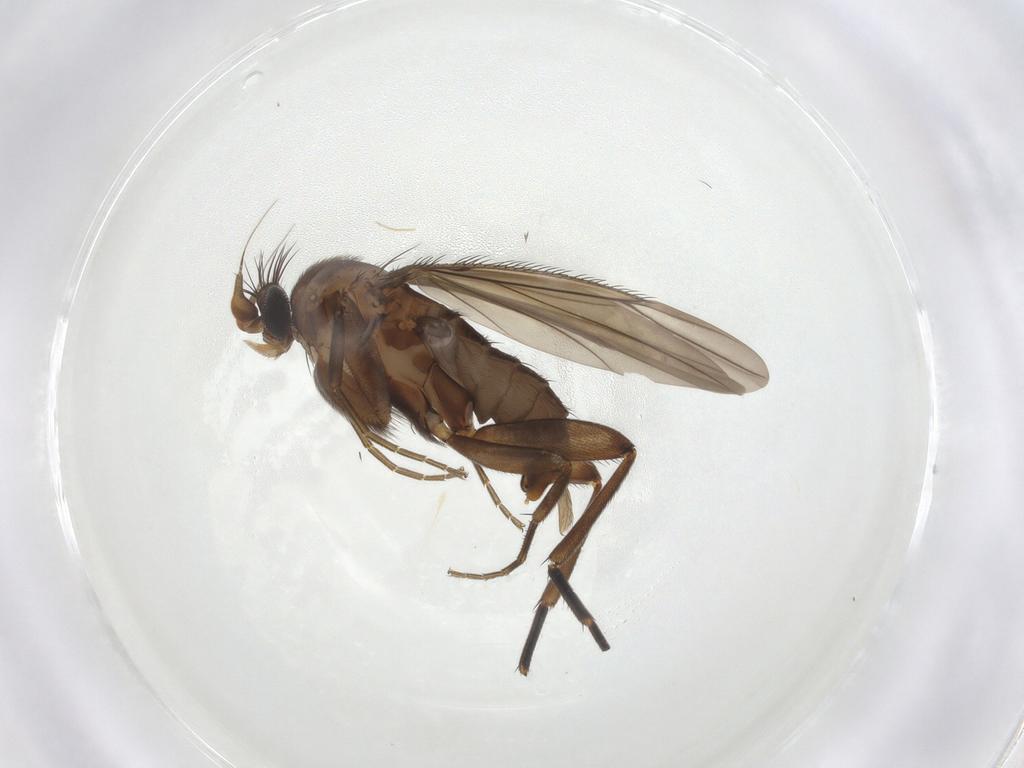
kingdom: Animalia
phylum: Arthropoda
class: Insecta
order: Diptera
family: Phoridae
